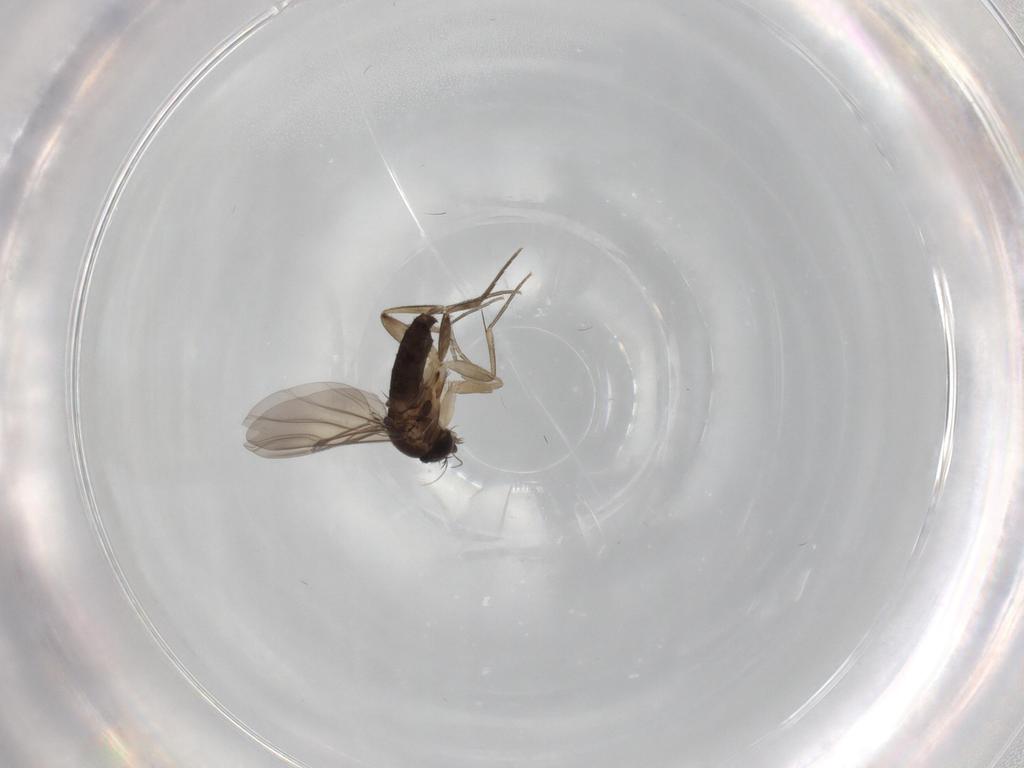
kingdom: Animalia
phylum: Arthropoda
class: Insecta
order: Diptera
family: Phoridae
